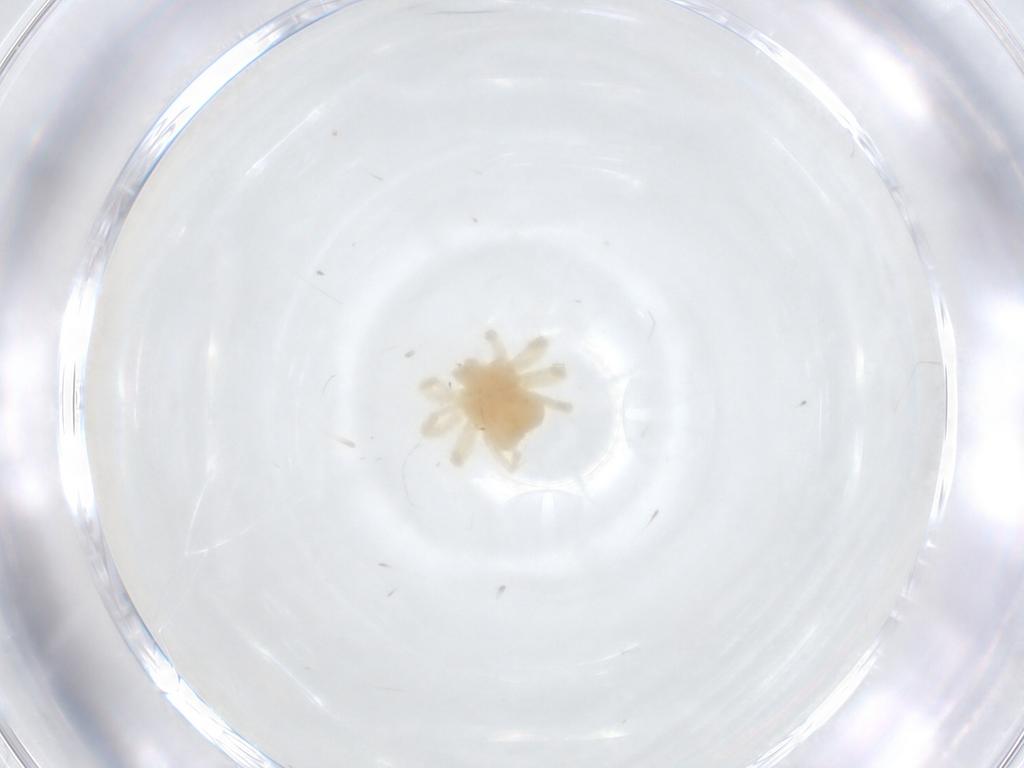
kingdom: Animalia
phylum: Arthropoda
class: Arachnida
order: Trombidiformes
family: Anystidae
